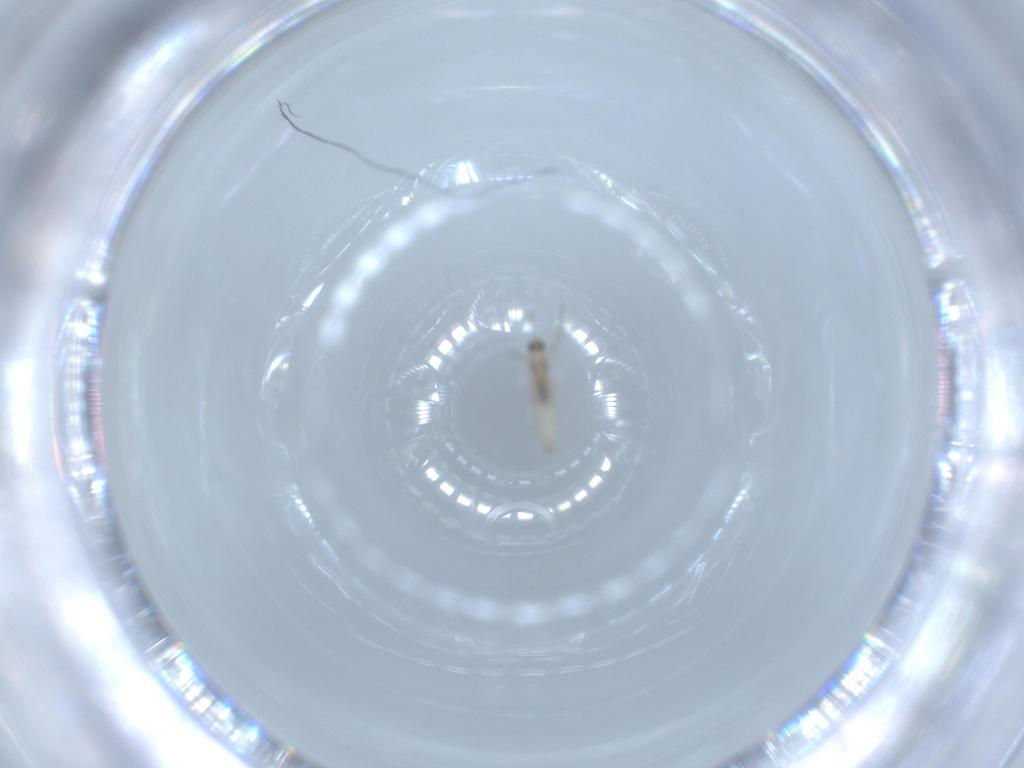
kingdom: Animalia
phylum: Arthropoda
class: Insecta
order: Diptera
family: Cecidomyiidae
